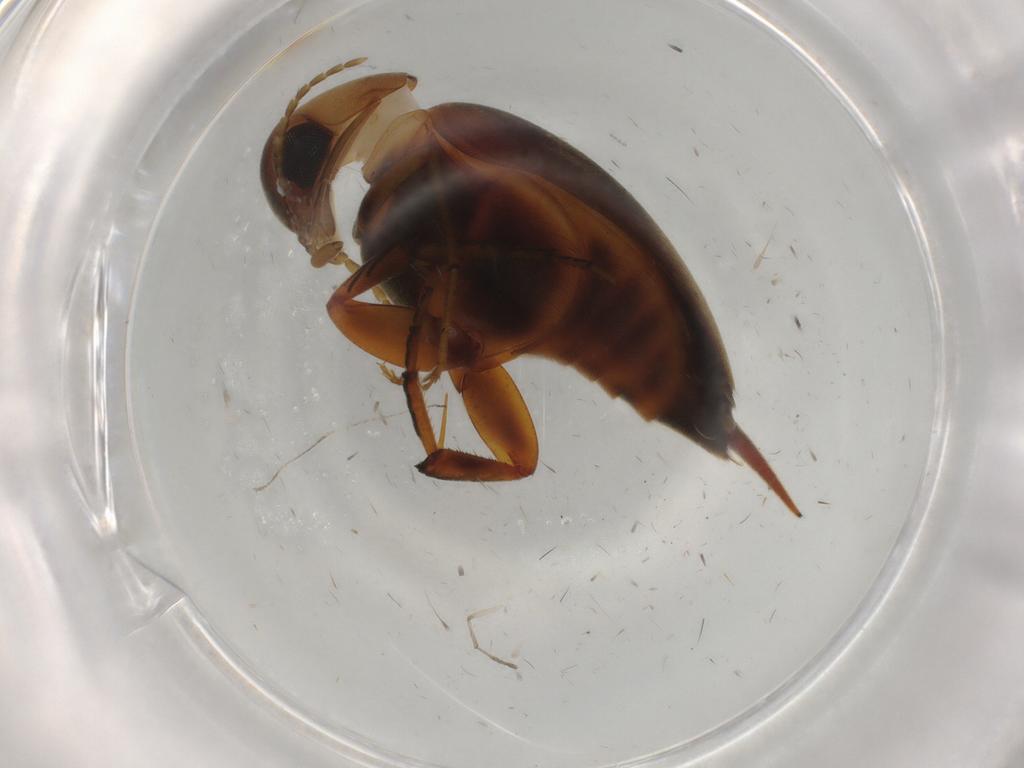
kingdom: Animalia
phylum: Arthropoda
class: Insecta
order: Coleoptera
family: Mordellidae
